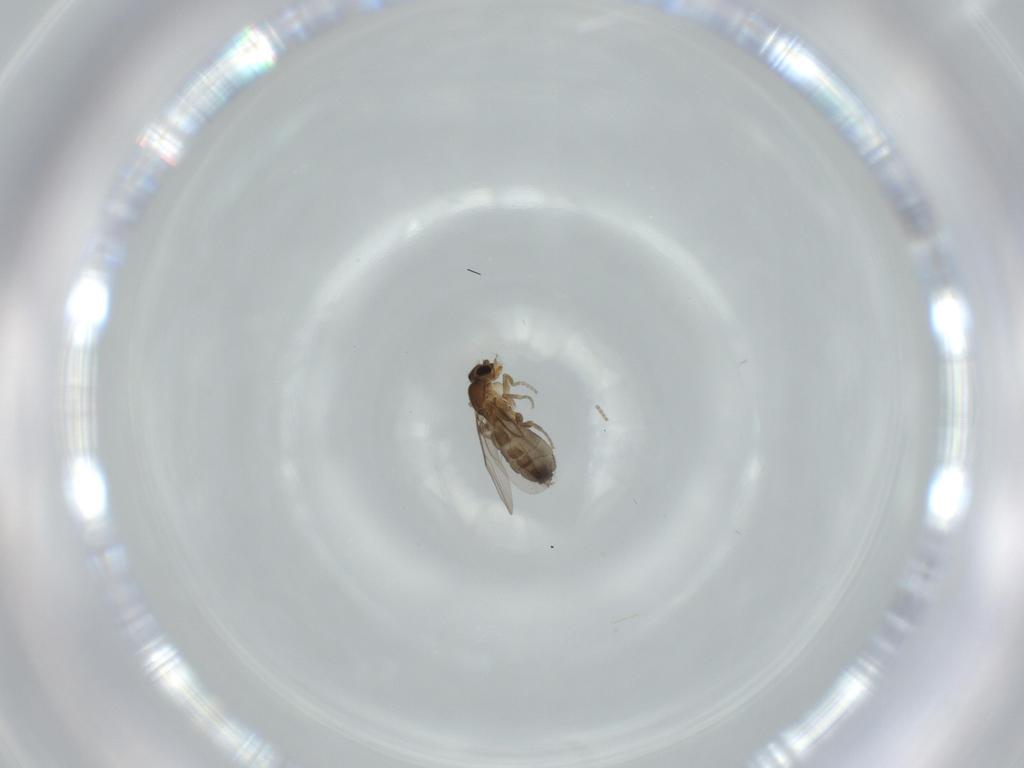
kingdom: Animalia
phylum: Arthropoda
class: Insecta
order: Diptera
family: Phoridae
